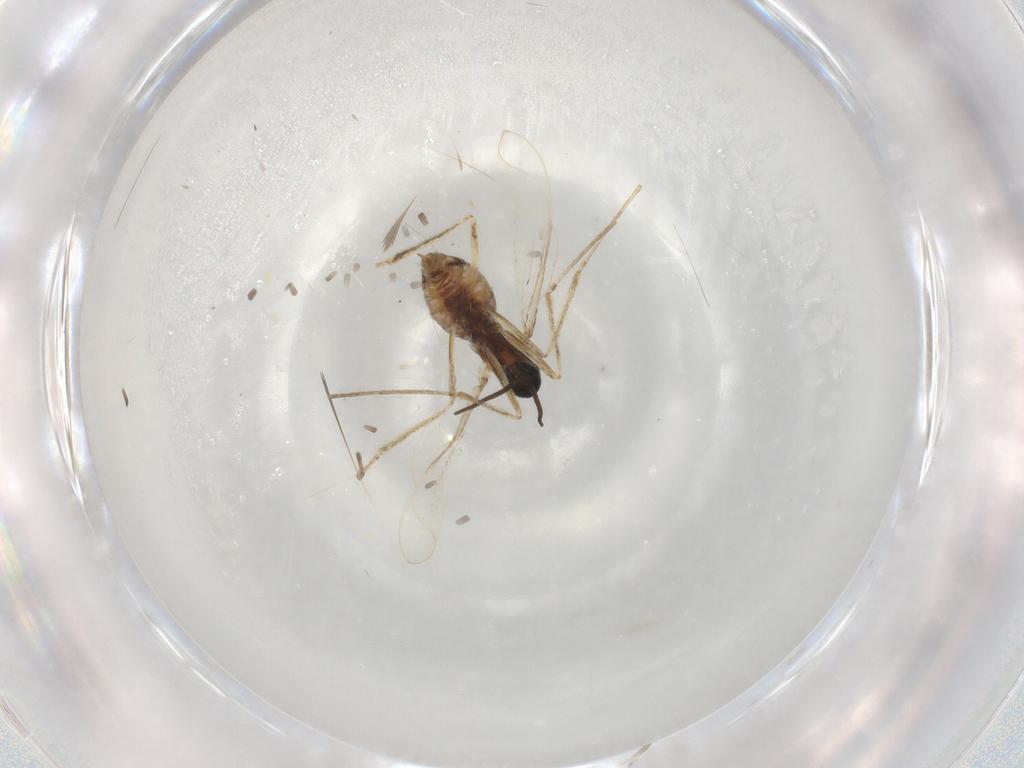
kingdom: Animalia
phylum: Arthropoda
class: Insecta
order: Diptera
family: Cecidomyiidae
